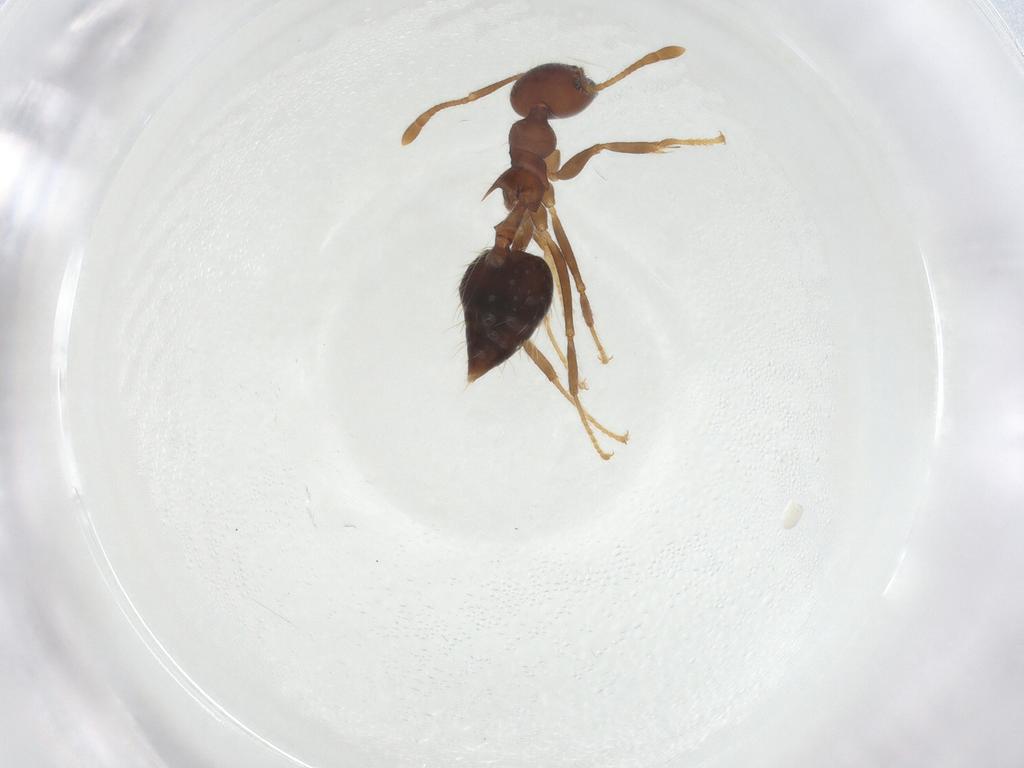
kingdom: Animalia
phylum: Arthropoda
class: Insecta
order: Hymenoptera
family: Formicidae
